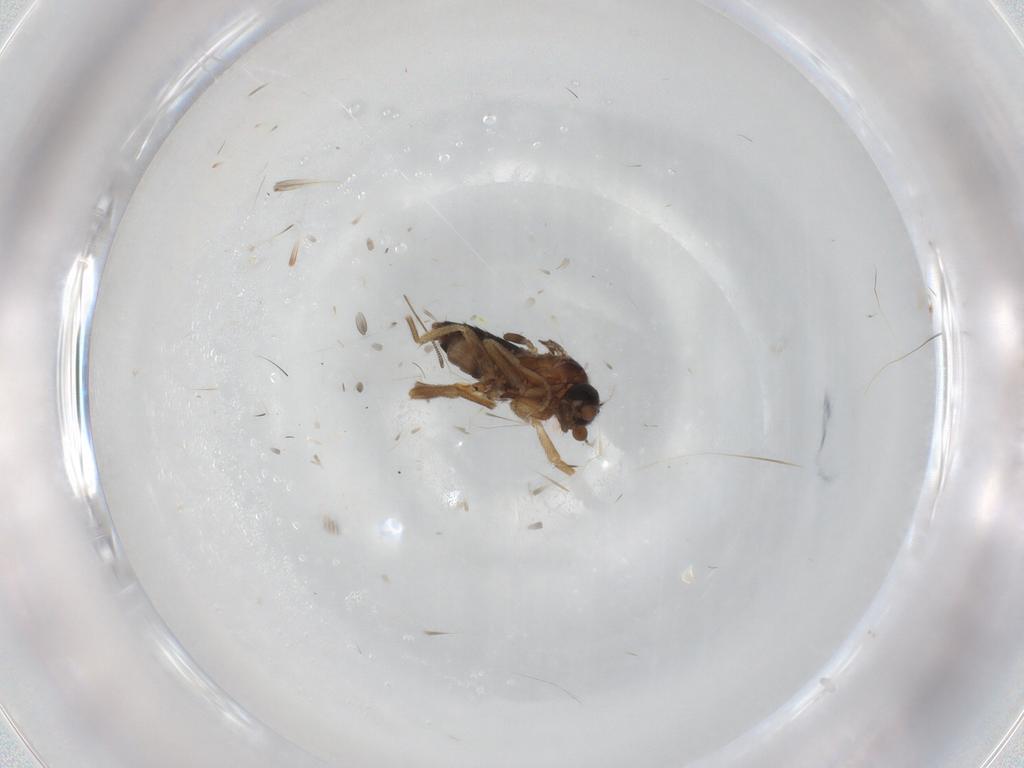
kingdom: Animalia
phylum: Arthropoda
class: Insecta
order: Diptera
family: Chironomidae
